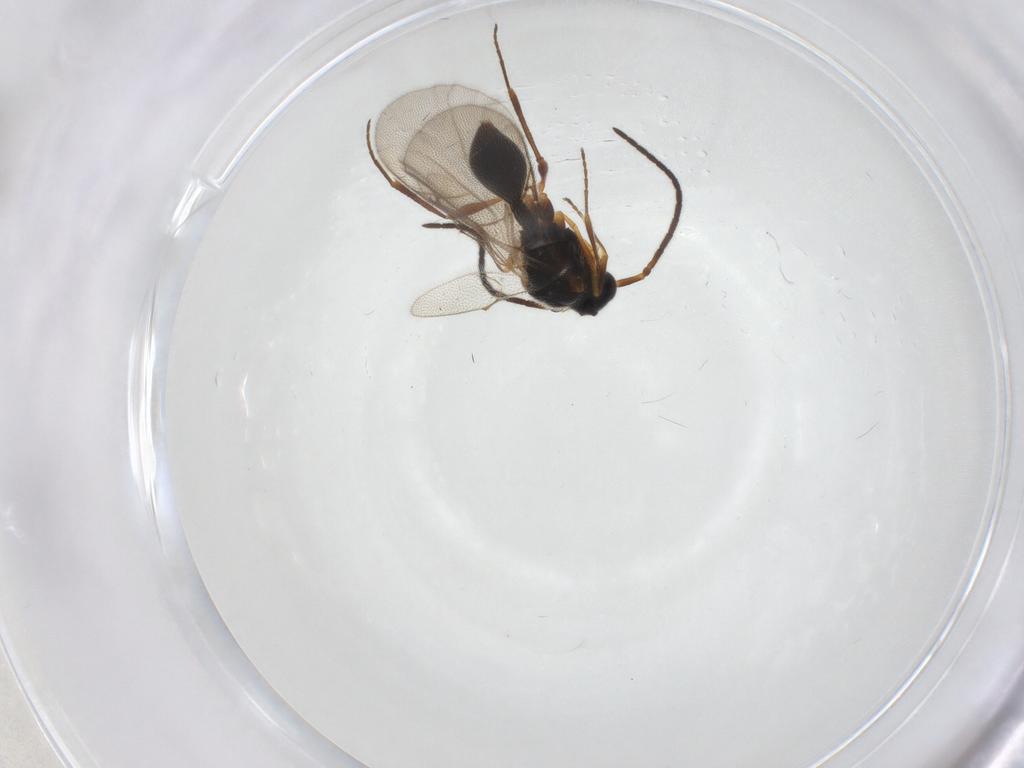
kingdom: Animalia
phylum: Arthropoda
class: Insecta
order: Hymenoptera
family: Diapriidae
